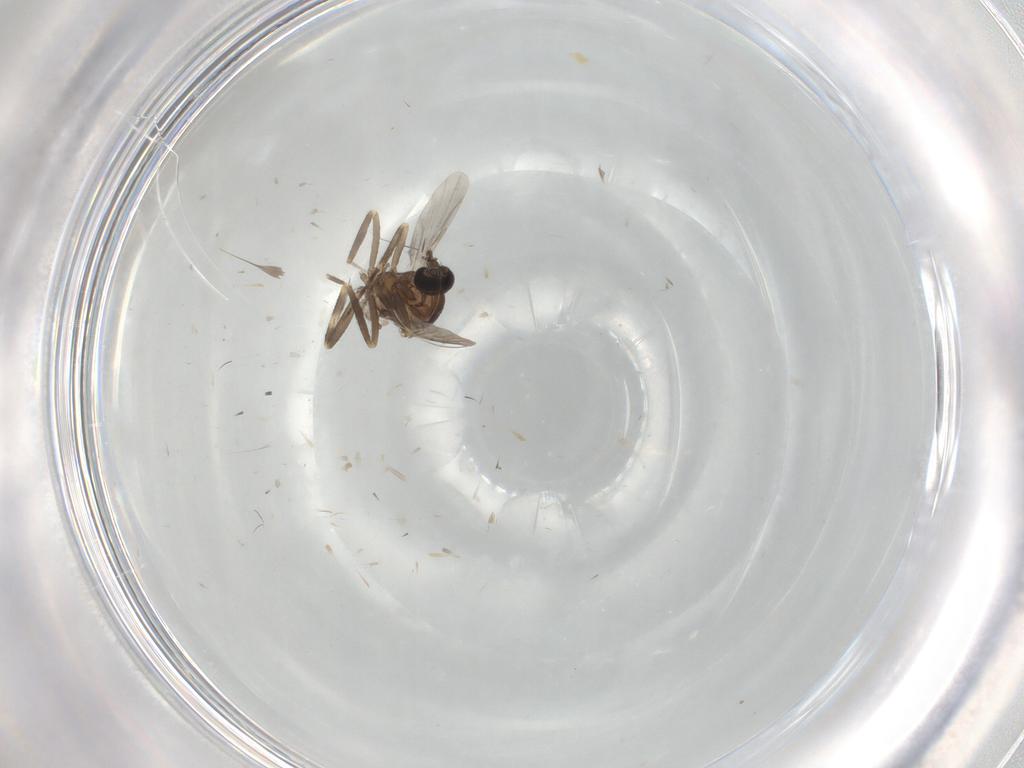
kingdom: Animalia
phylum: Arthropoda
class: Insecta
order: Diptera
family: Ceratopogonidae
